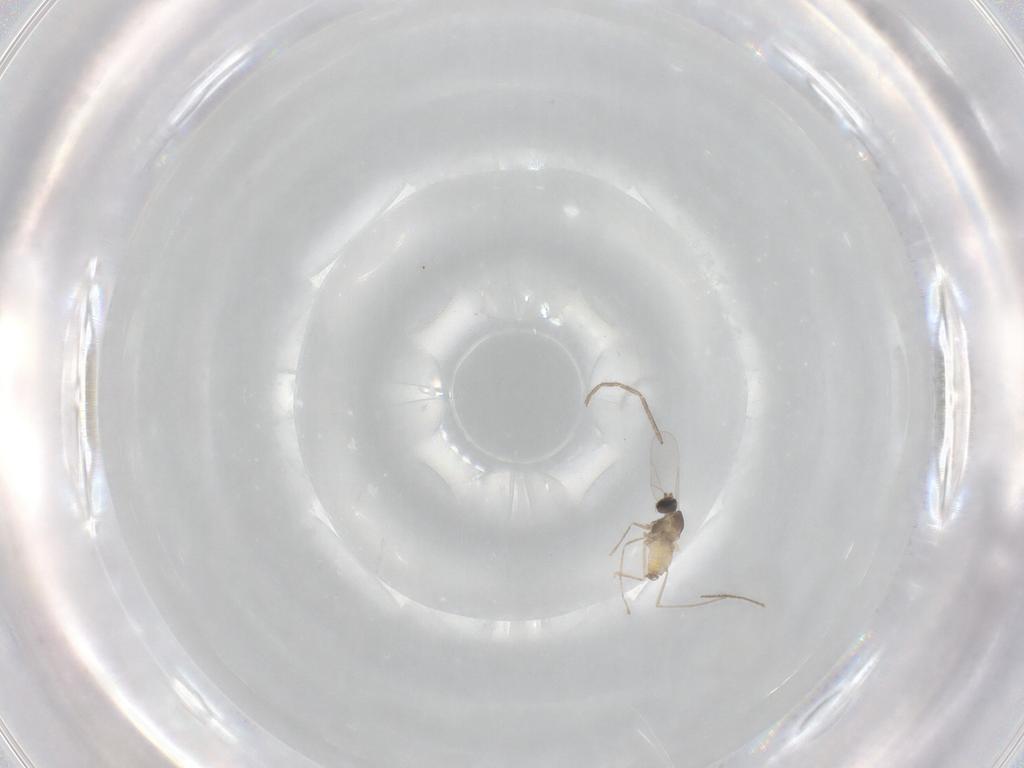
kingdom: Animalia
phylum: Arthropoda
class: Insecta
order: Diptera
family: Cecidomyiidae
